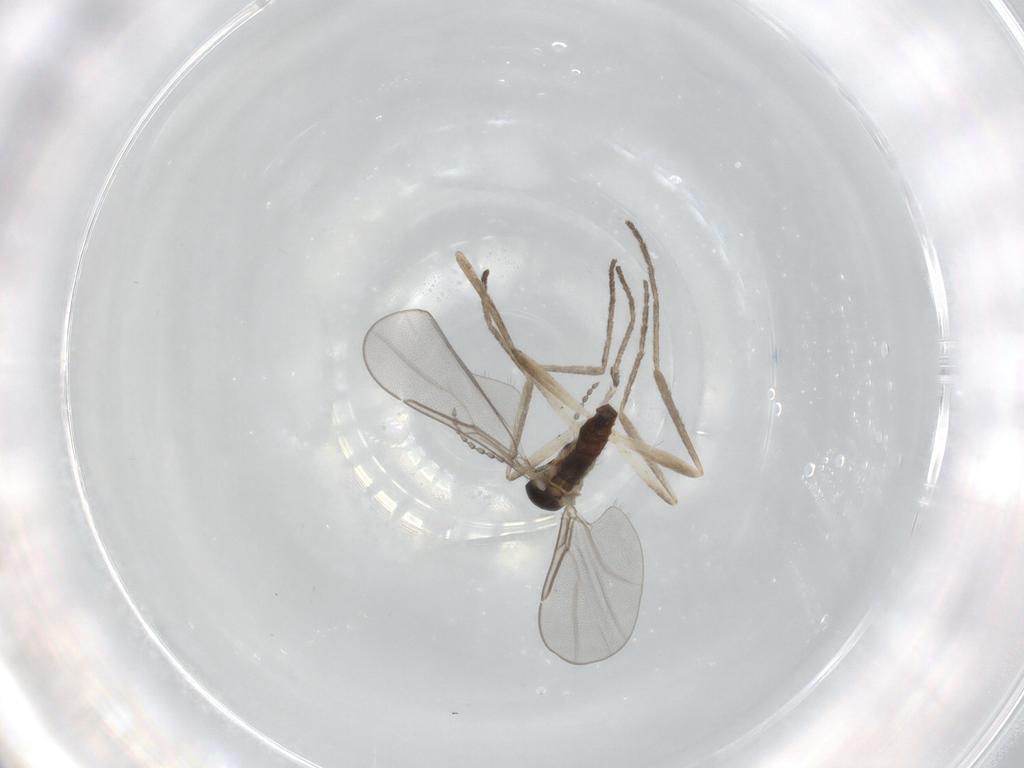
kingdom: Animalia
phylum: Arthropoda
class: Insecta
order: Diptera
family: Cecidomyiidae
